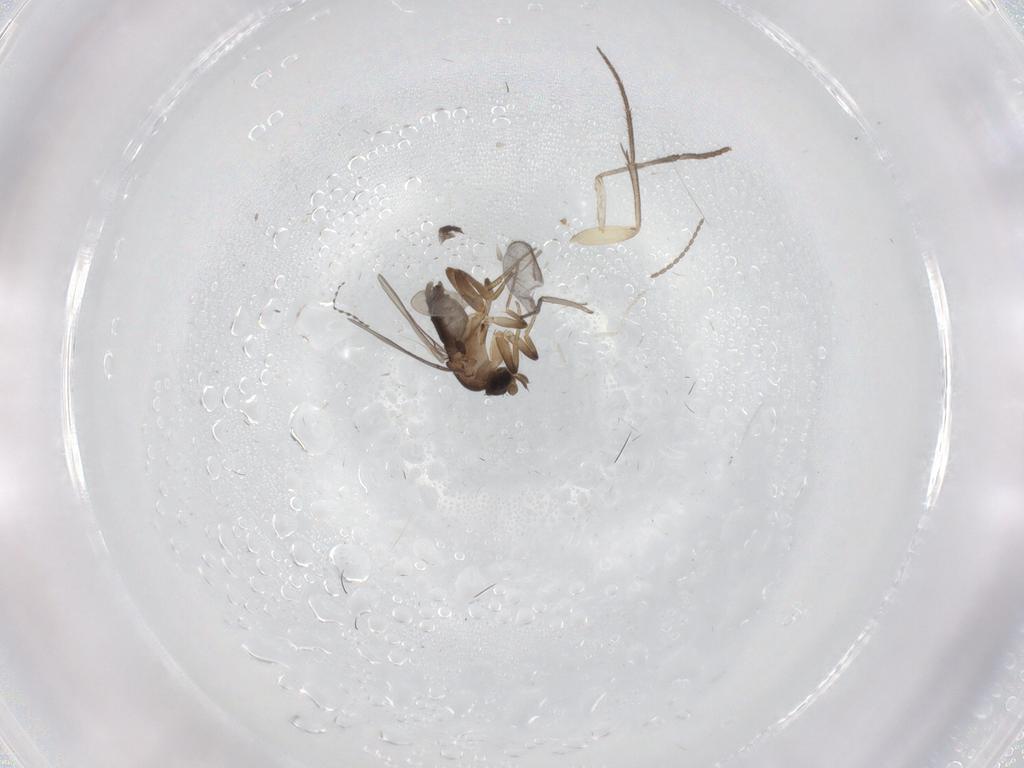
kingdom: Animalia
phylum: Arthropoda
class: Insecta
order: Diptera
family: Mycetophilidae
